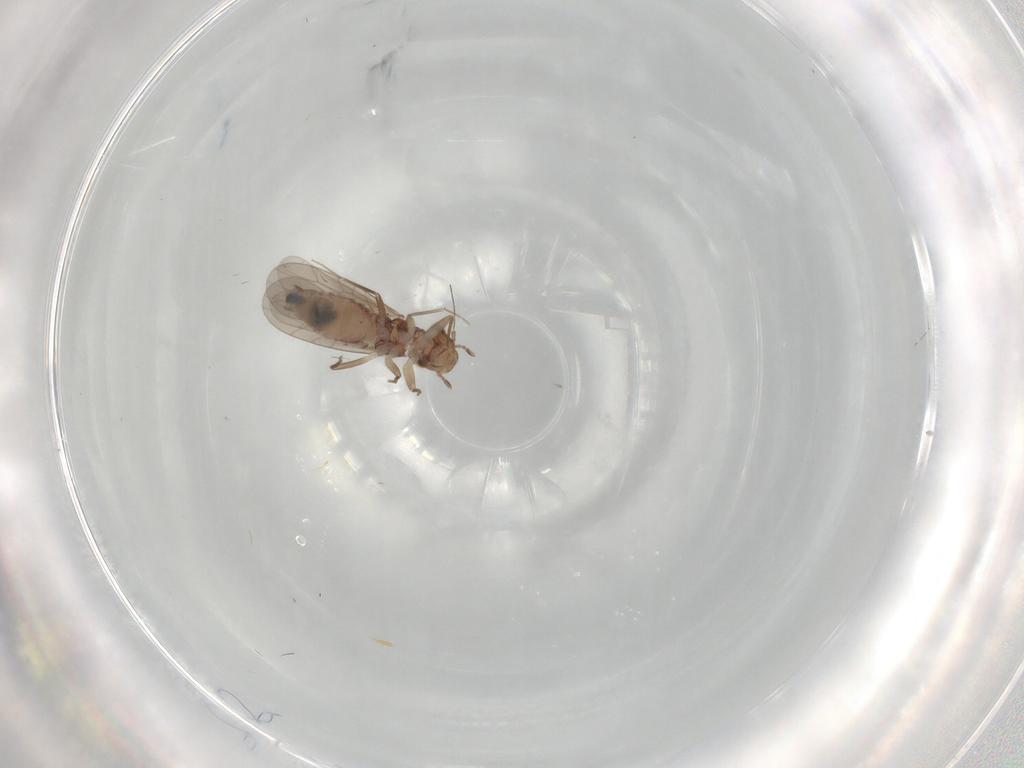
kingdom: Animalia
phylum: Arthropoda
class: Insecta
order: Psocodea
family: Lepidopsocidae
